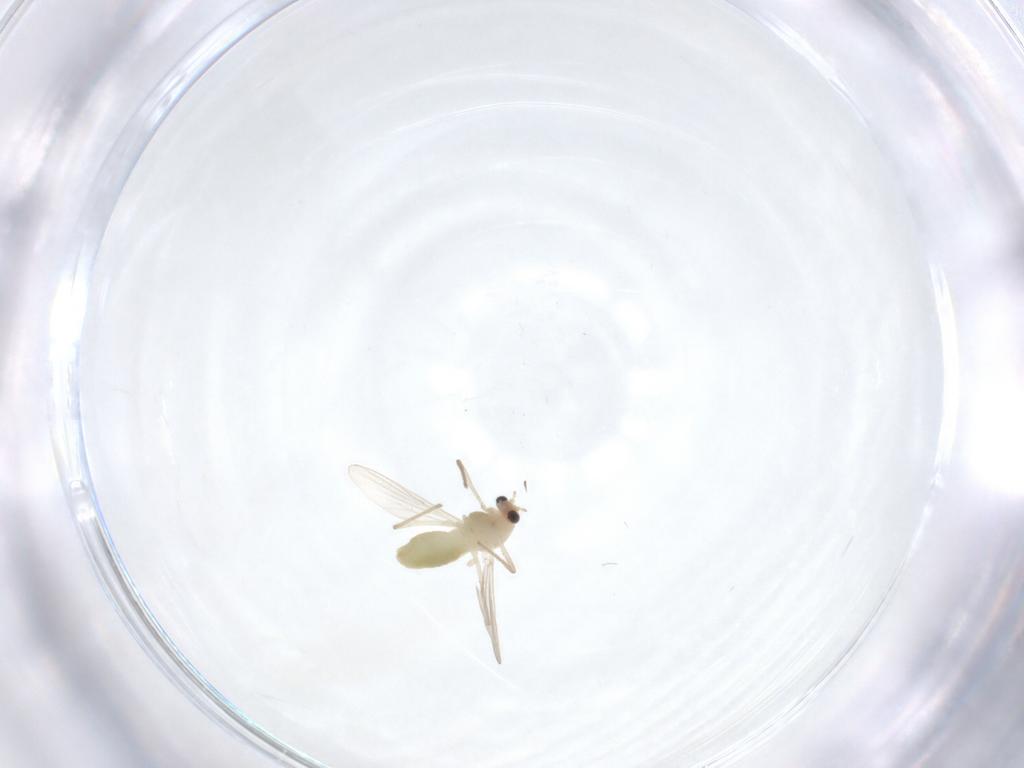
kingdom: Animalia
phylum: Arthropoda
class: Insecta
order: Diptera
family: Chironomidae
